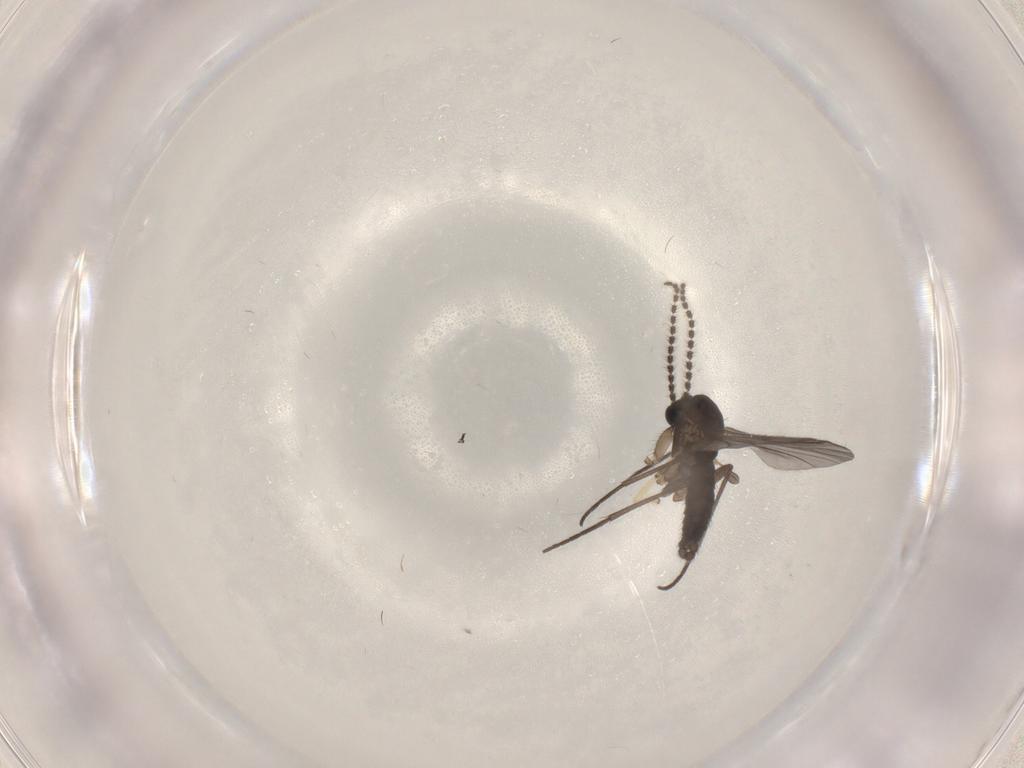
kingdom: Animalia
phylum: Arthropoda
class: Insecta
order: Diptera
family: Sciaridae
